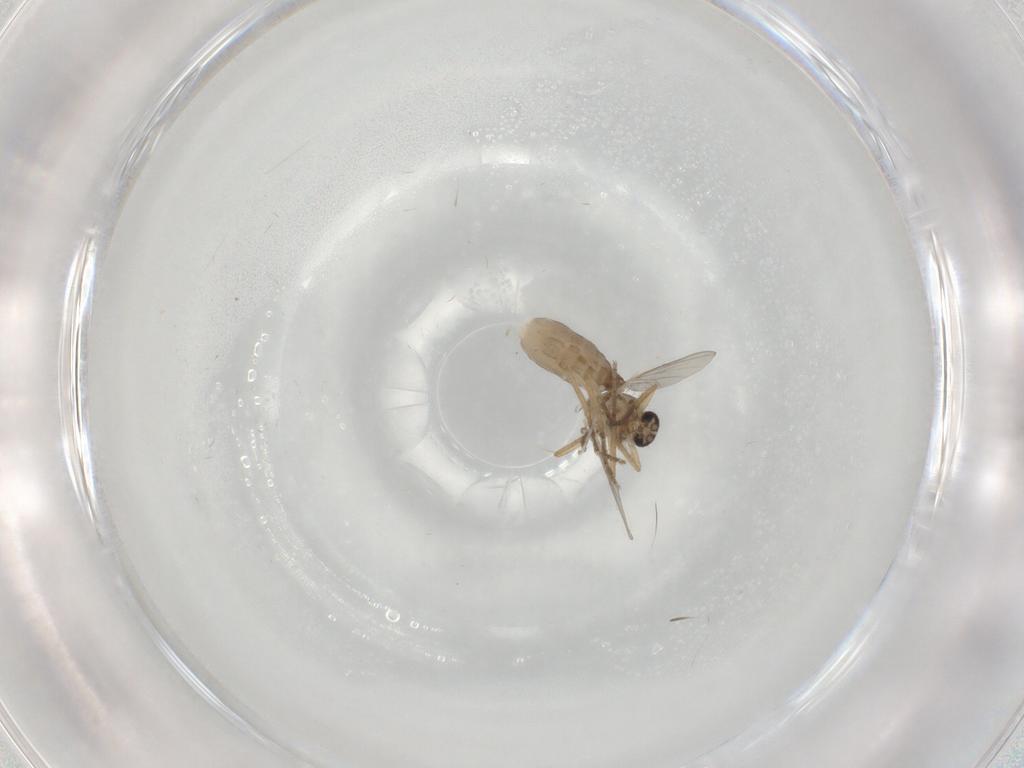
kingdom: Animalia
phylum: Arthropoda
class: Insecta
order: Diptera
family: Ceratopogonidae
